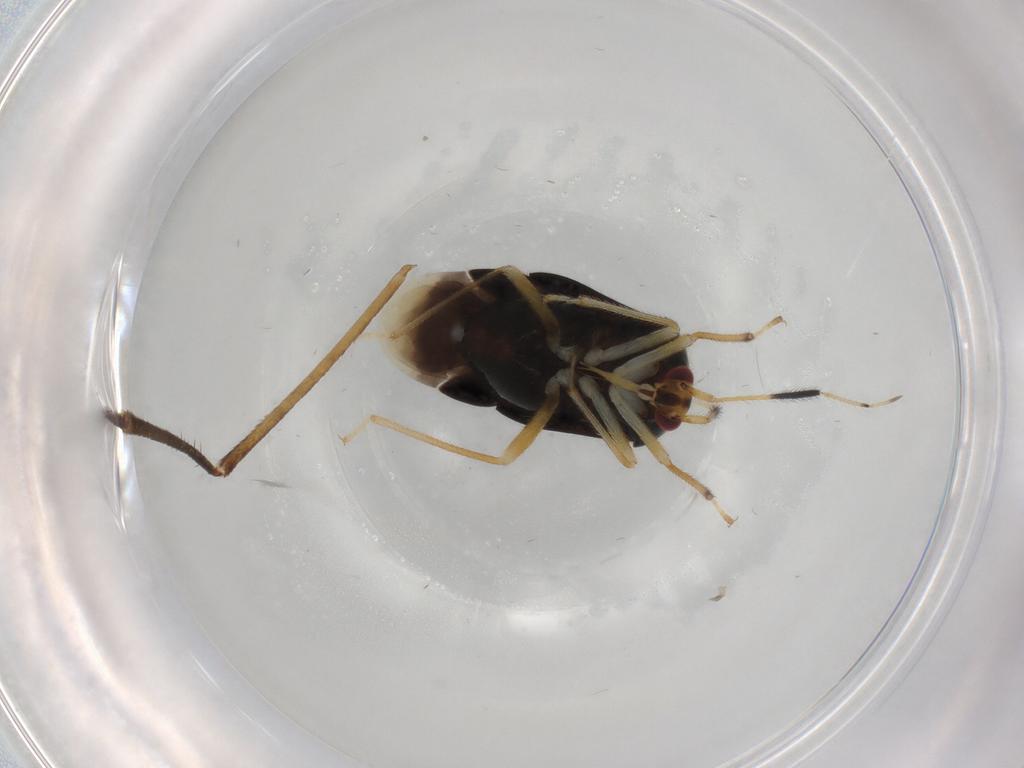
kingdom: Animalia
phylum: Arthropoda
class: Insecta
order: Hemiptera
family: Miridae
